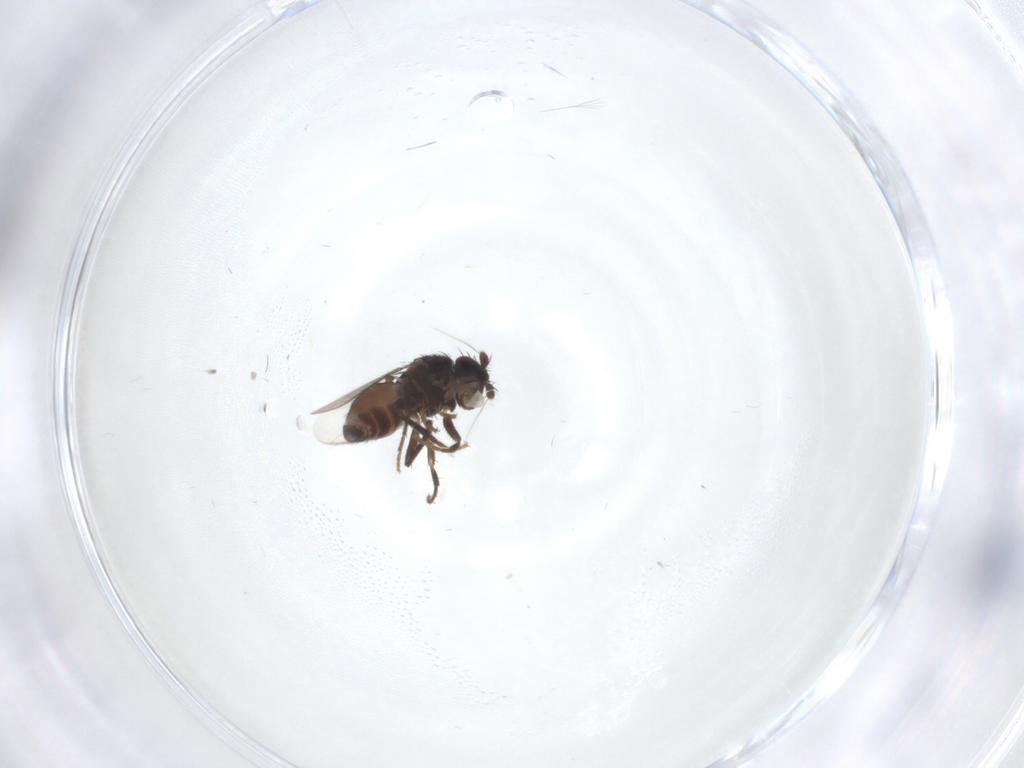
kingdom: Animalia
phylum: Arthropoda
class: Insecta
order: Diptera
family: Sphaeroceridae
